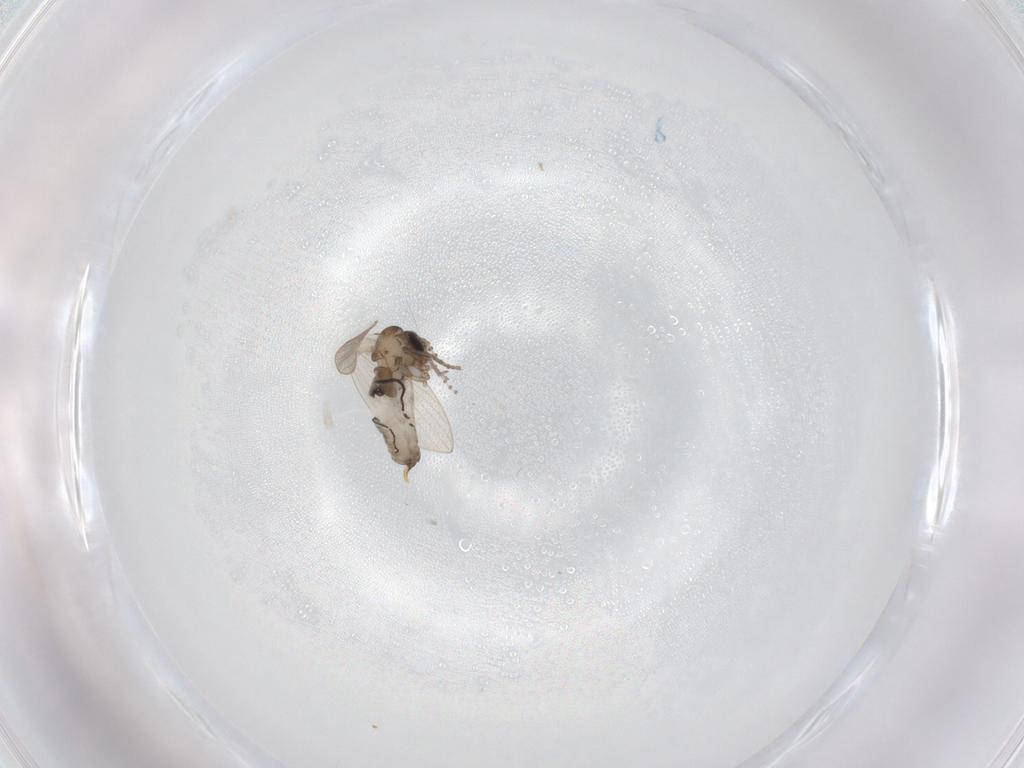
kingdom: Animalia
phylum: Arthropoda
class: Insecta
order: Diptera
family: Psychodidae
